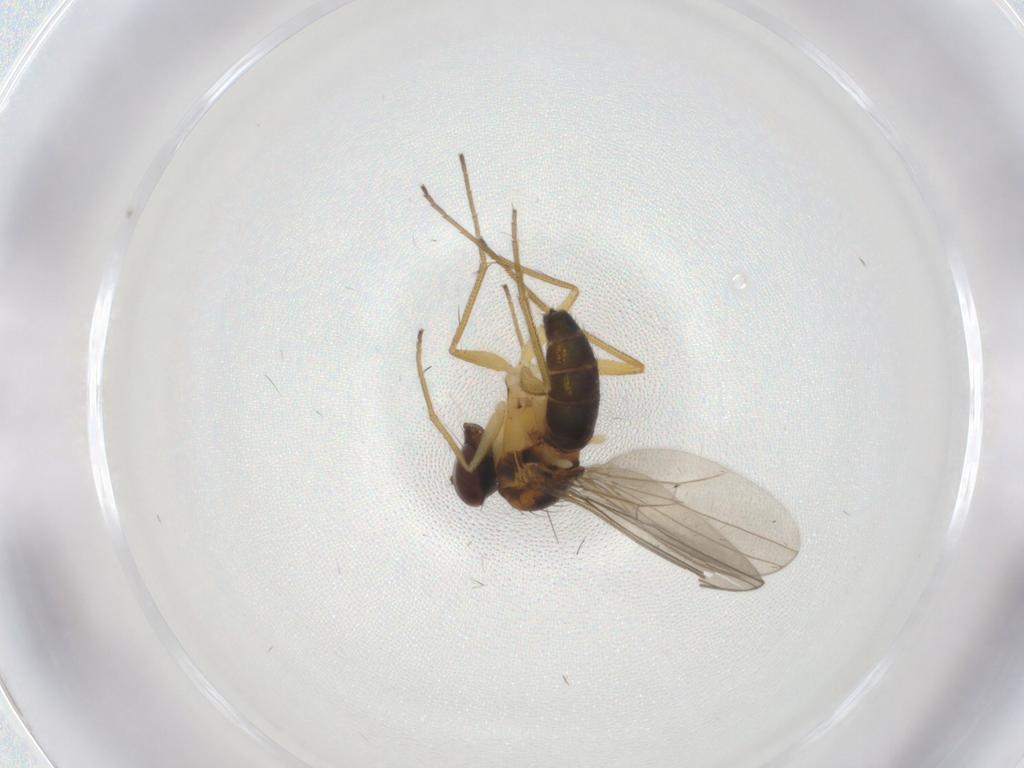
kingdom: Animalia
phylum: Arthropoda
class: Insecta
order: Diptera
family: Dolichopodidae
